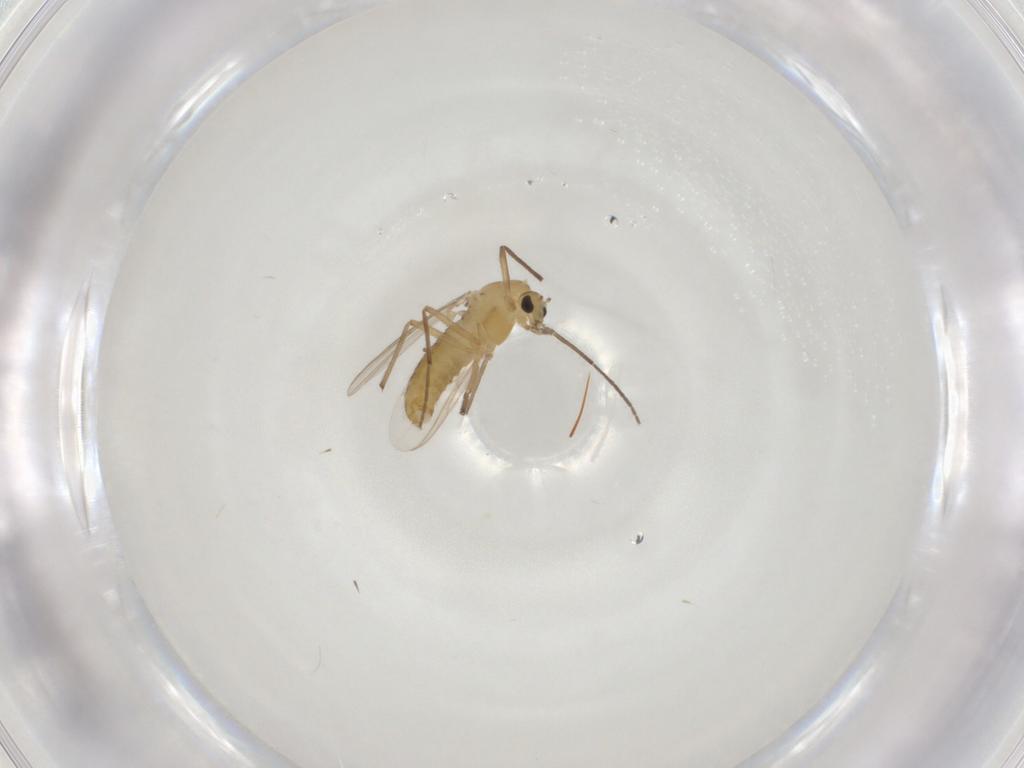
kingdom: Animalia
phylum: Arthropoda
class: Insecta
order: Diptera
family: Sciaridae
